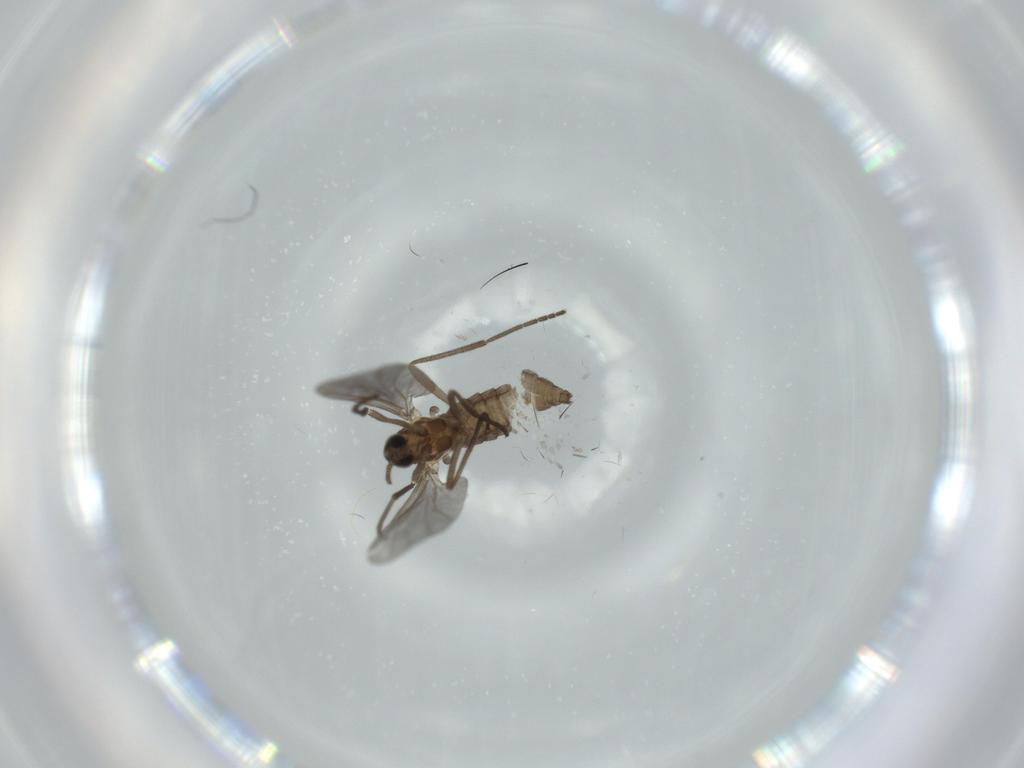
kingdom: Animalia
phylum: Arthropoda
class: Insecta
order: Diptera
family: Cecidomyiidae
